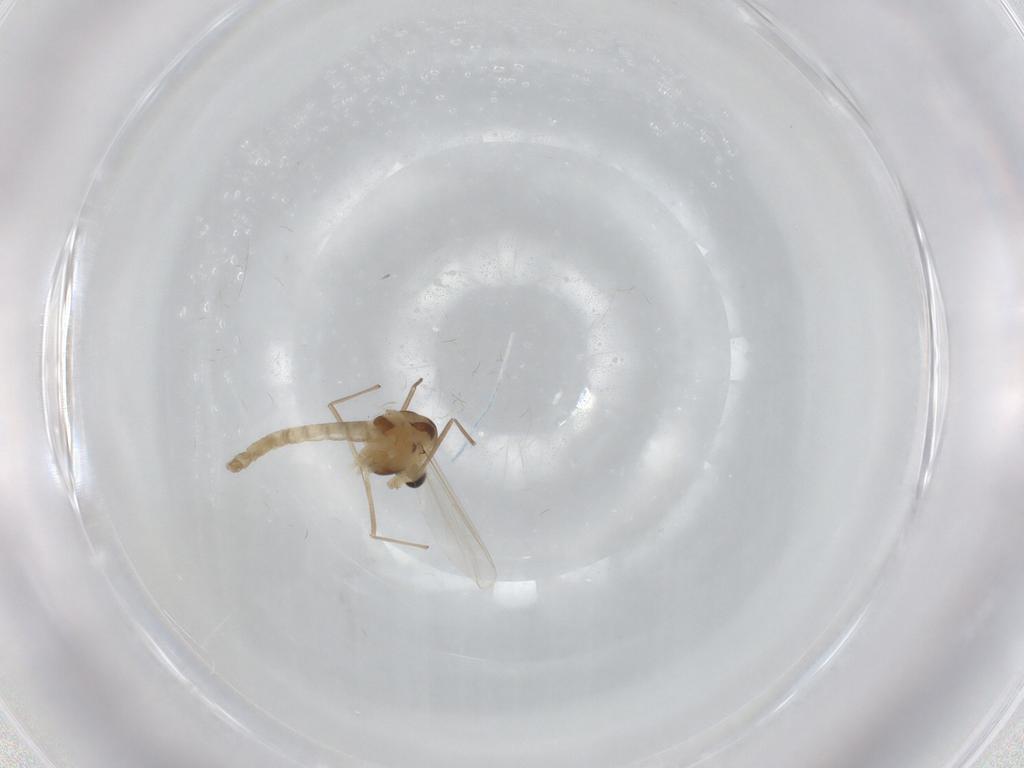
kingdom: Animalia
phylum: Arthropoda
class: Insecta
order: Diptera
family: Chironomidae
